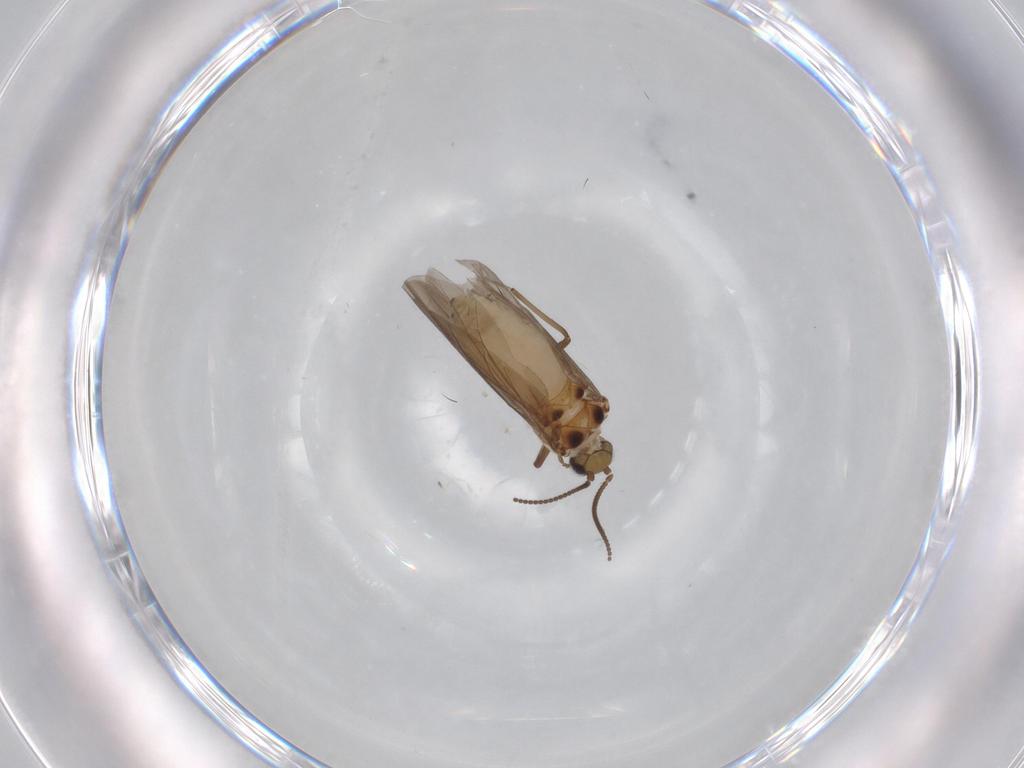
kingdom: Animalia
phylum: Arthropoda
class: Insecta
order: Neuroptera
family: Coniopterygidae
